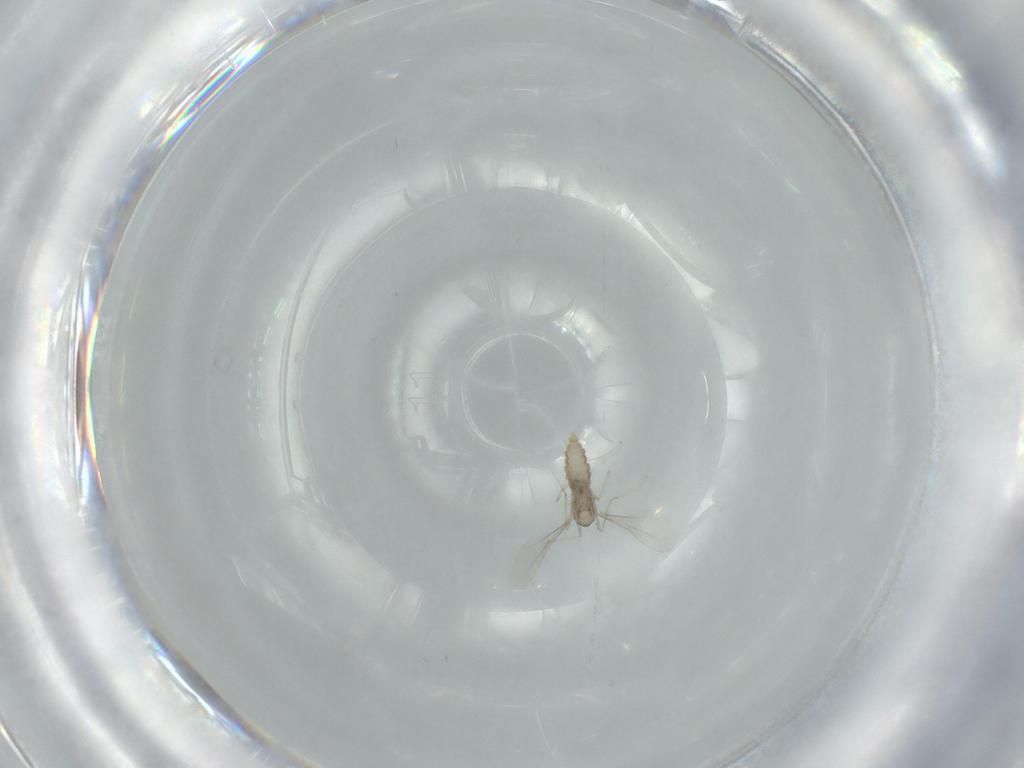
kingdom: Animalia
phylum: Arthropoda
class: Insecta
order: Diptera
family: Cecidomyiidae
